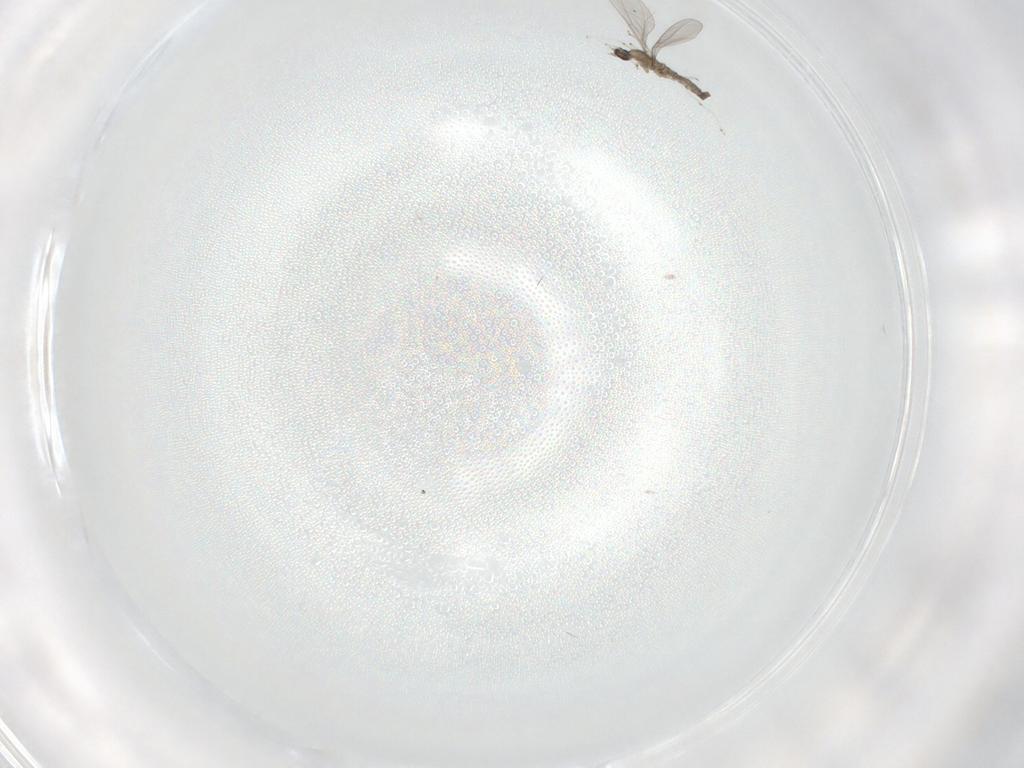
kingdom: Animalia
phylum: Arthropoda
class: Insecta
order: Diptera
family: Cecidomyiidae
